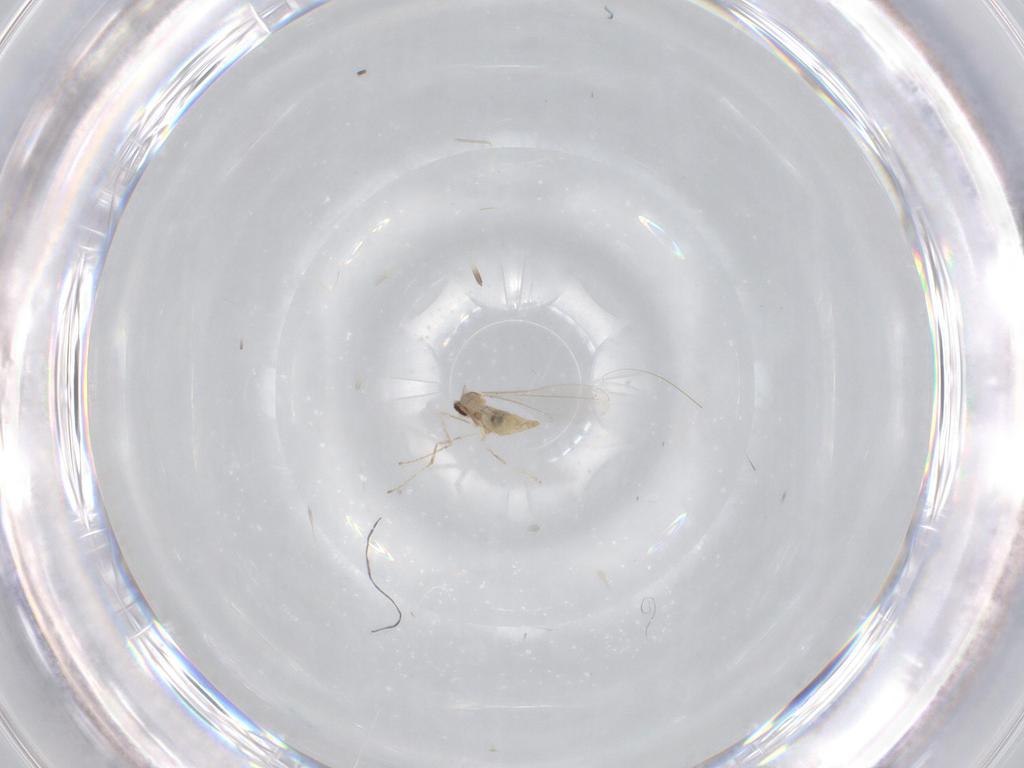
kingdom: Animalia
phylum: Arthropoda
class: Insecta
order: Diptera
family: Cecidomyiidae
